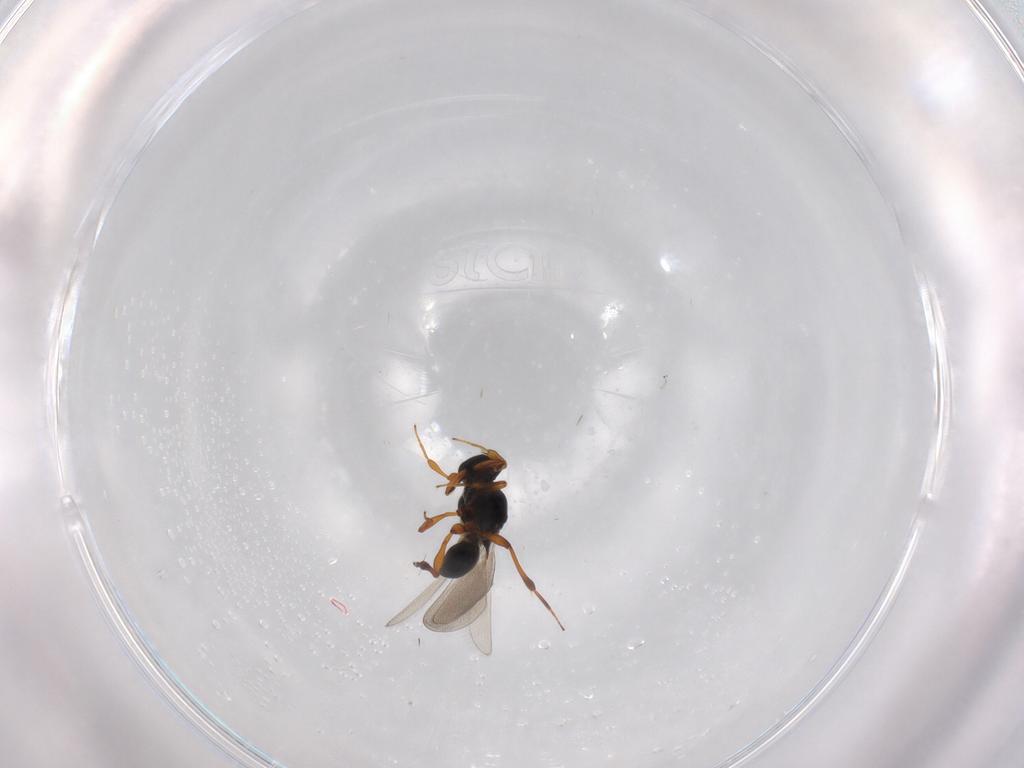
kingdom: Animalia
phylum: Arthropoda
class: Insecta
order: Hymenoptera
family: Platygastridae
